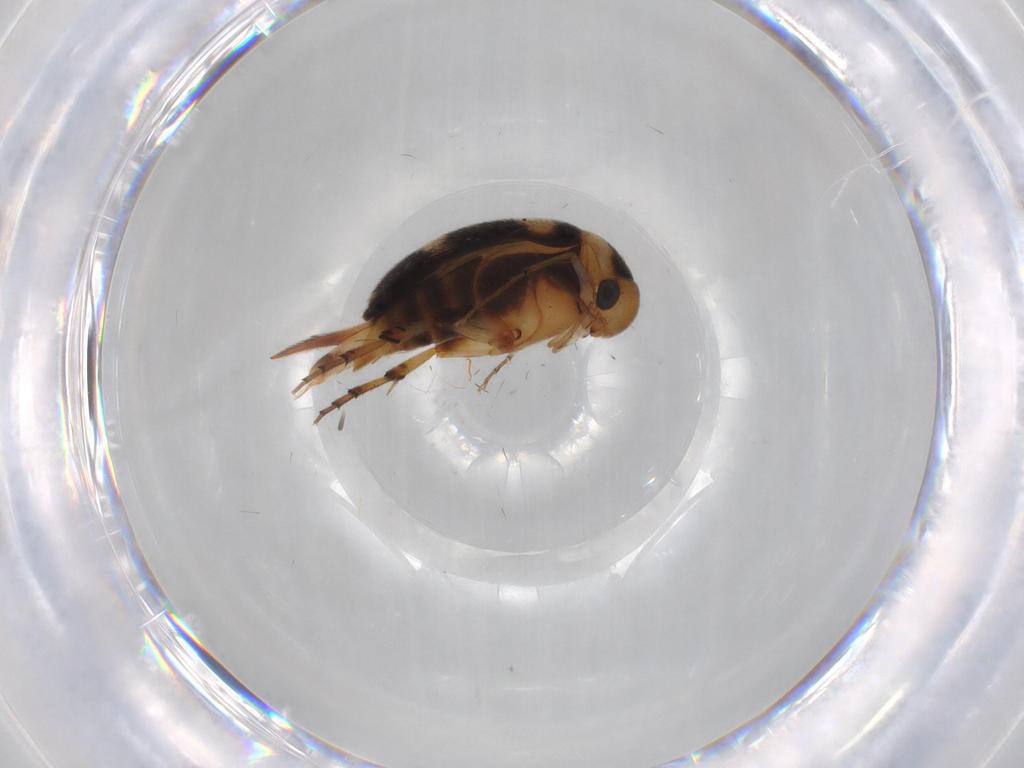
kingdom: Animalia
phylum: Arthropoda
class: Insecta
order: Coleoptera
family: Mordellidae
